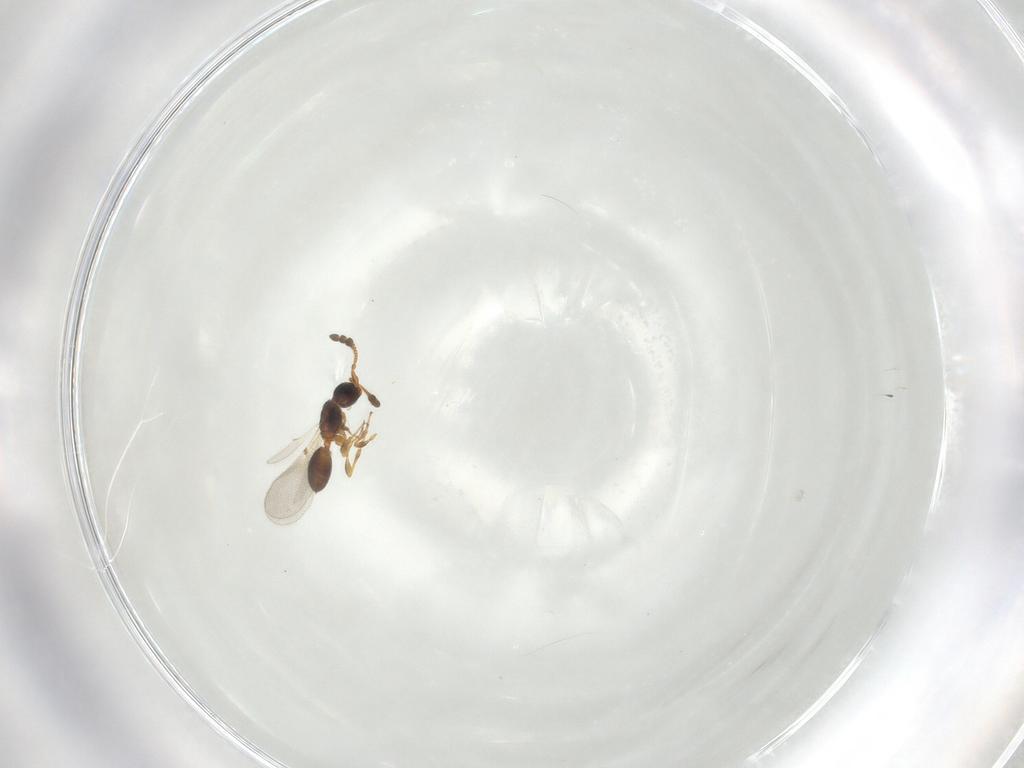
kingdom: Animalia
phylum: Arthropoda
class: Insecta
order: Hymenoptera
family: Diapriidae
